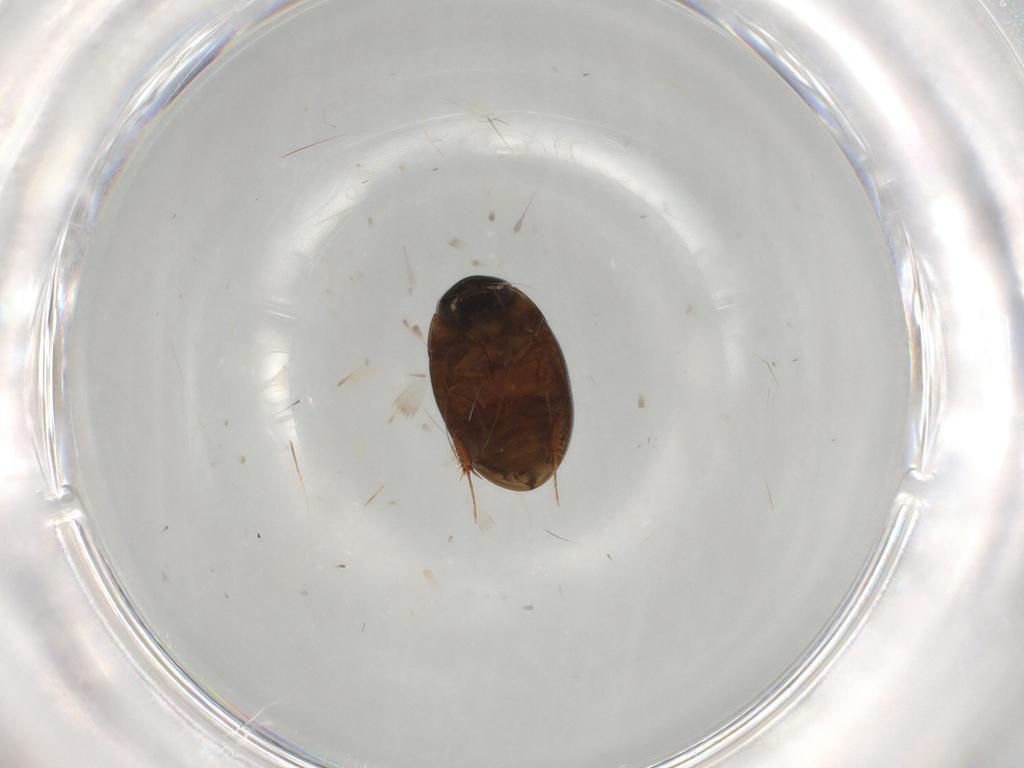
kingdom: Animalia
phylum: Arthropoda
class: Insecta
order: Coleoptera
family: Hydrophilidae
